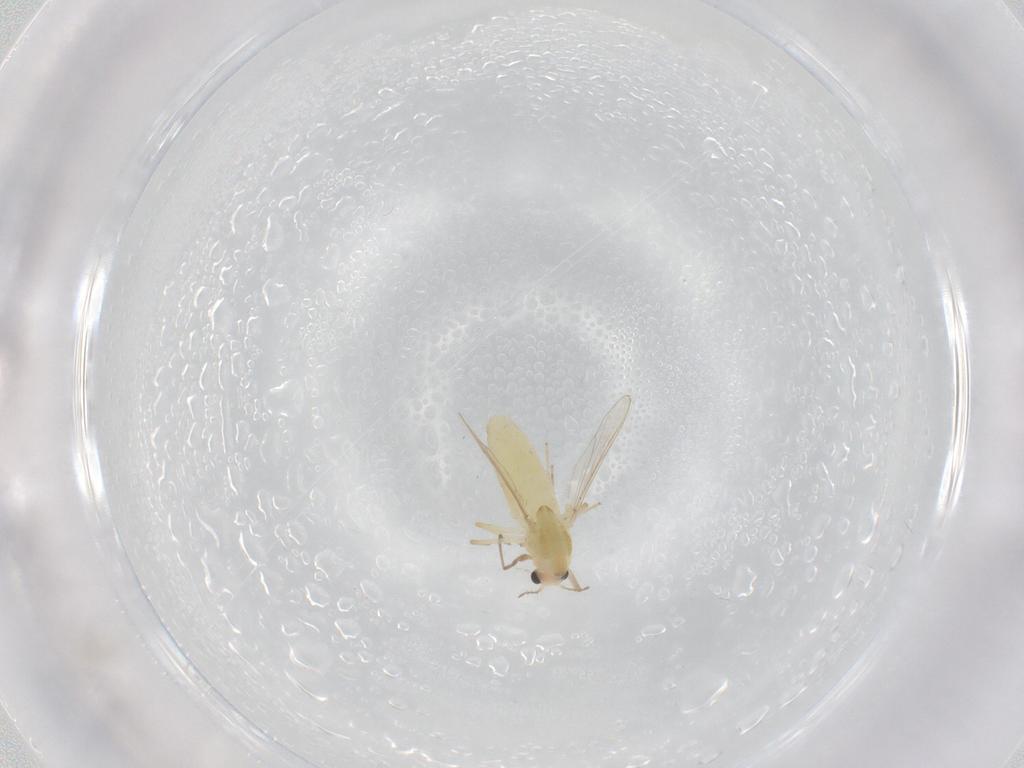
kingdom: Animalia
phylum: Arthropoda
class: Insecta
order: Diptera
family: Chironomidae
